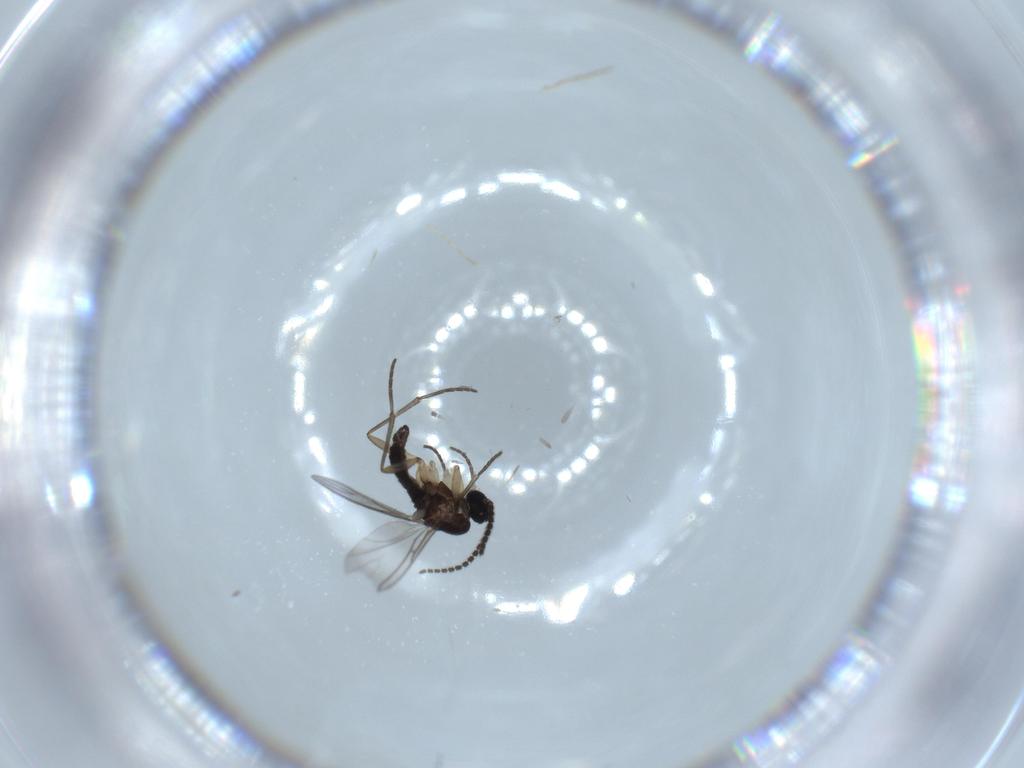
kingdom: Animalia
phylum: Arthropoda
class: Insecta
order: Diptera
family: Sciaridae
